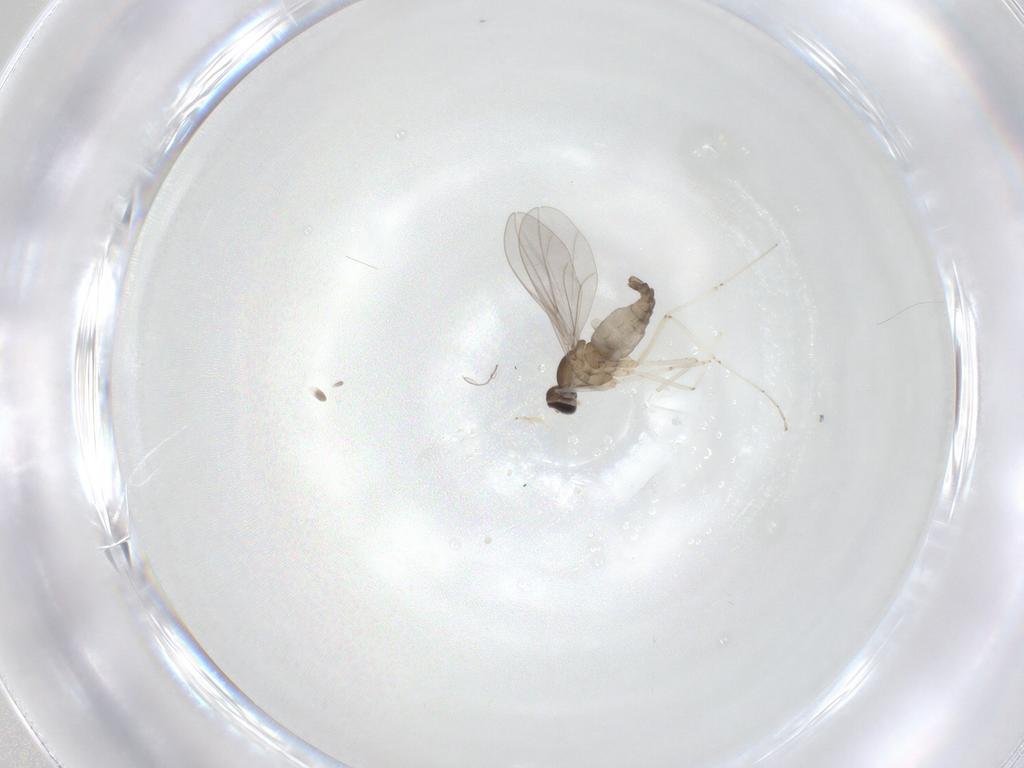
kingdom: Animalia
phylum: Arthropoda
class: Insecta
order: Diptera
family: Cecidomyiidae
